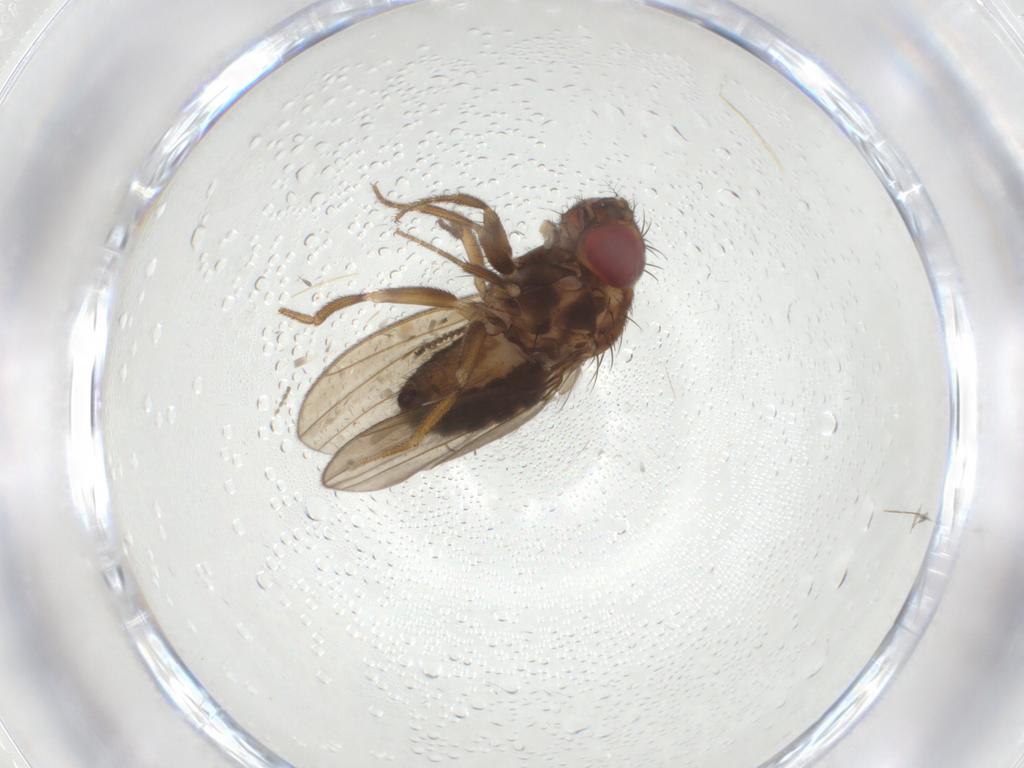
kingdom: Animalia
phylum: Arthropoda
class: Insecta
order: Diptera
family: Drosophilidae
